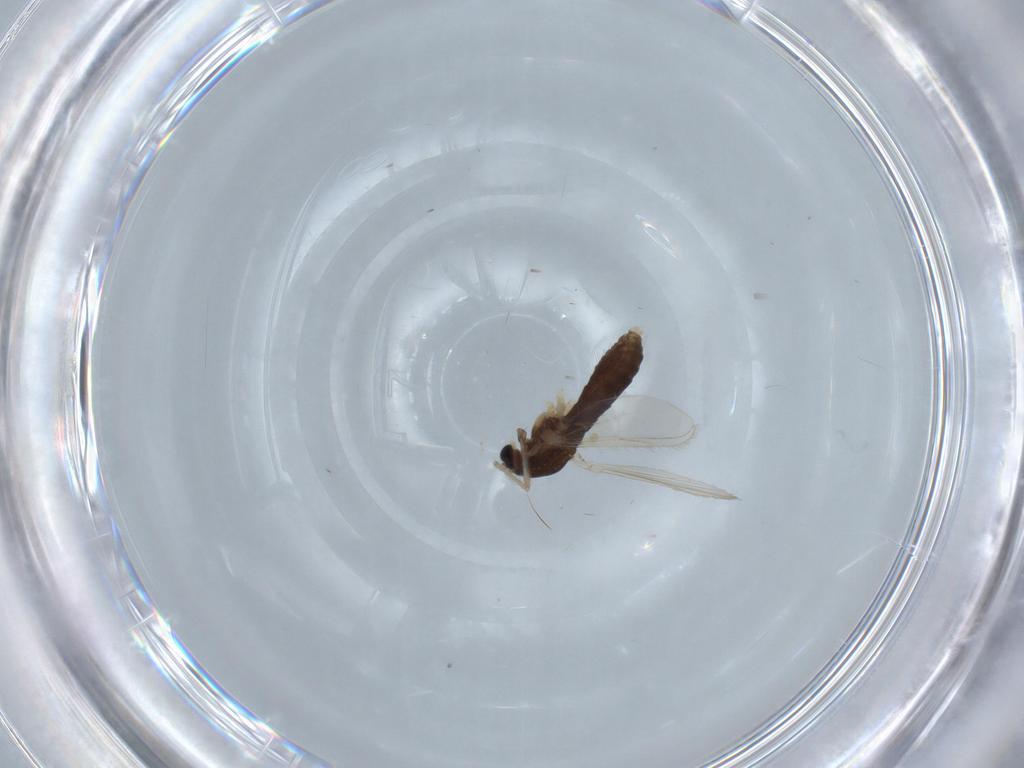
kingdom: Animalia
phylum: Arthropoda
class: Insecta
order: Diptera
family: Chironomidae
